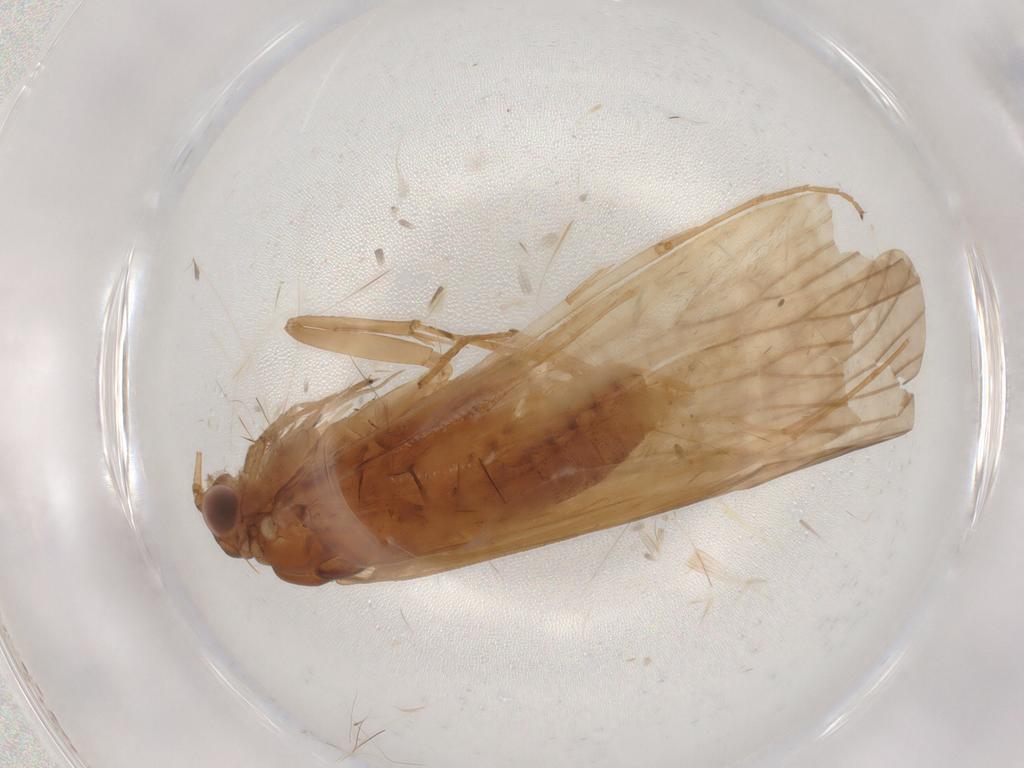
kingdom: Animalia
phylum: Arthropoda
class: Insecta
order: Trichoptera
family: Hydropsychidae
